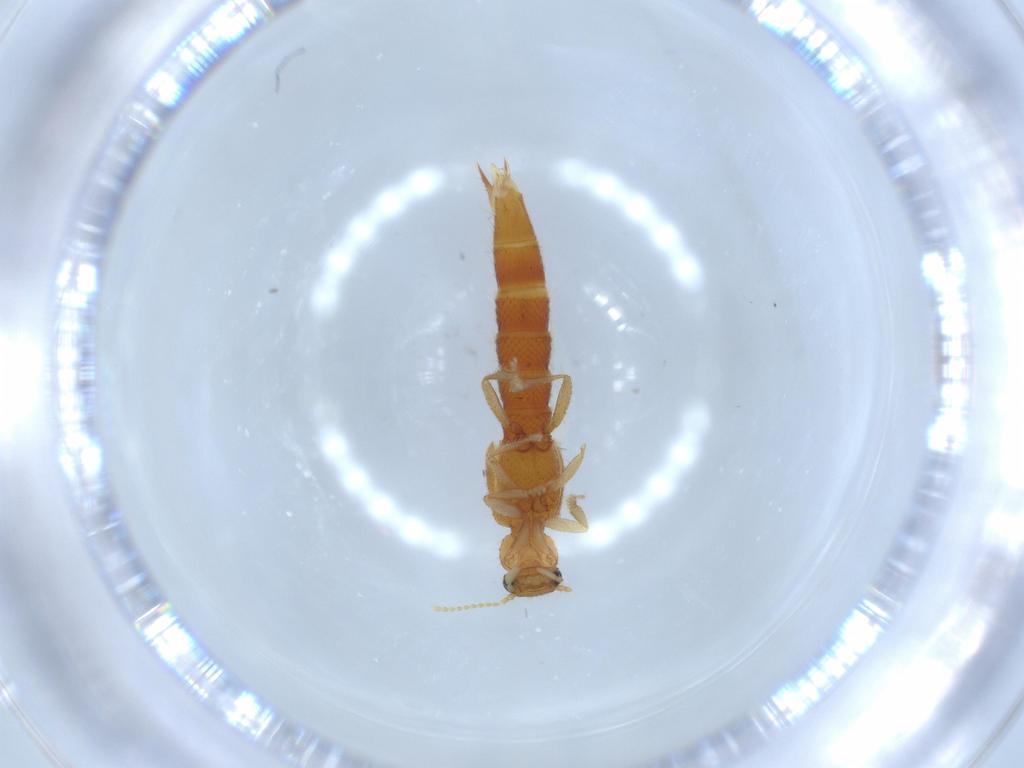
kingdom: Animalia
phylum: Arthropoda
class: Insecta
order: Coleoptera
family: Staphylinidae
